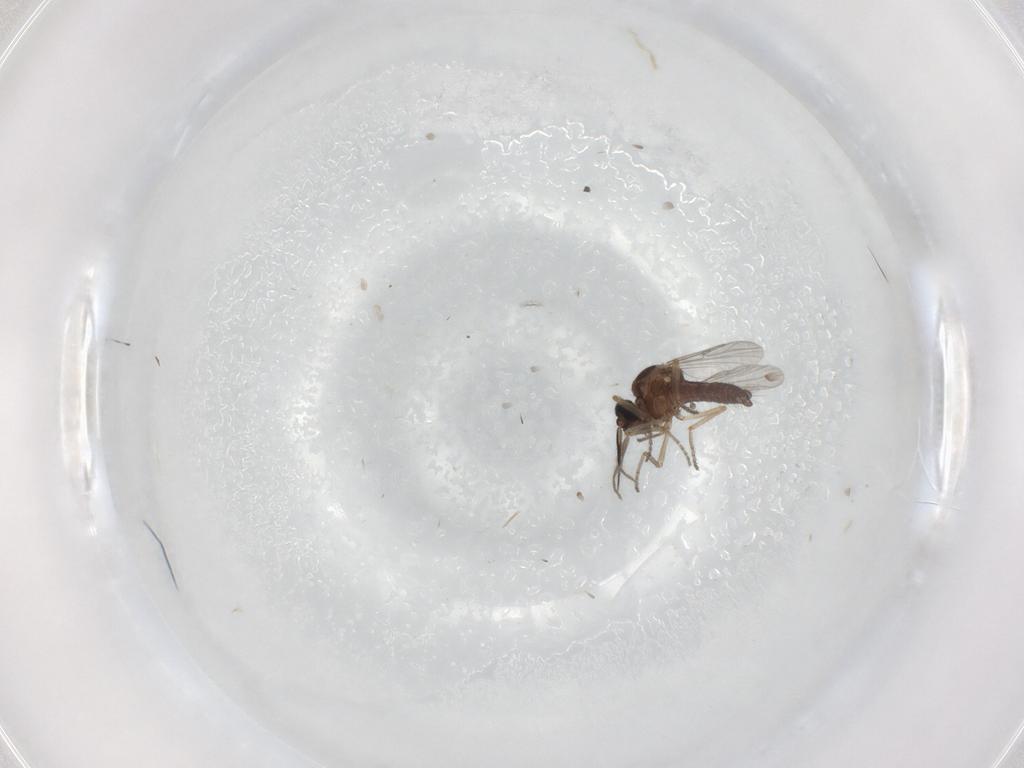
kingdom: Animalia
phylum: Arthropoda
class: Insecta
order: Diptera
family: Ceratopogonidae
